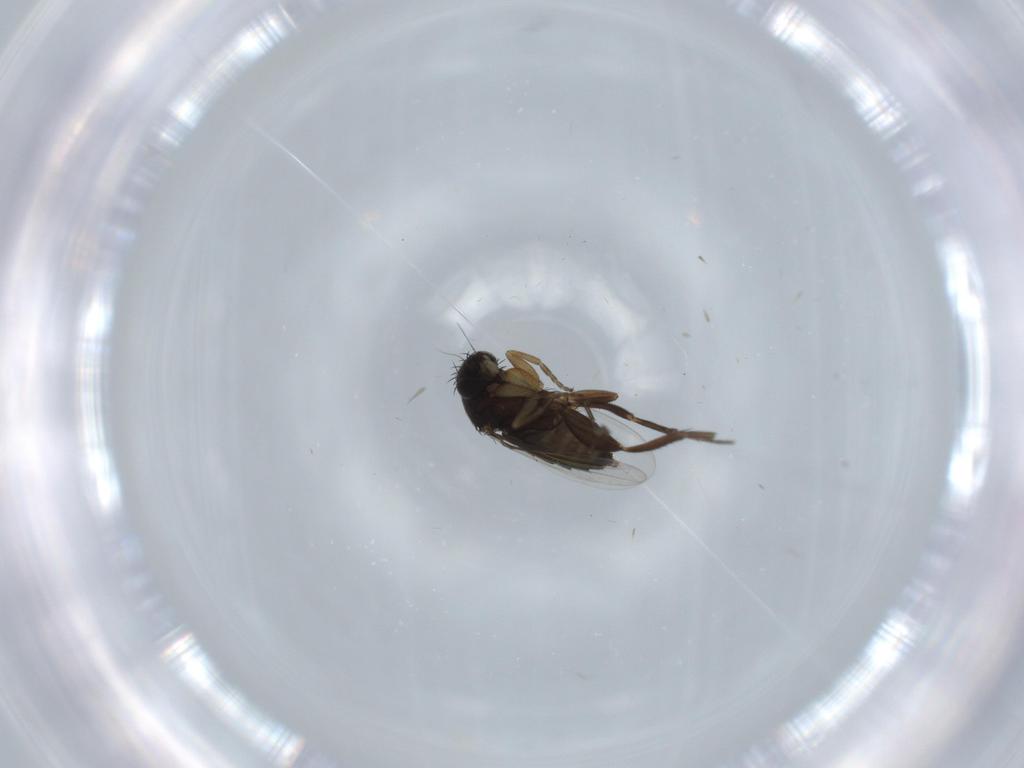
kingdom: Animalia
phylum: Arthropoda
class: Insecta
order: Diptera
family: Phoridae
